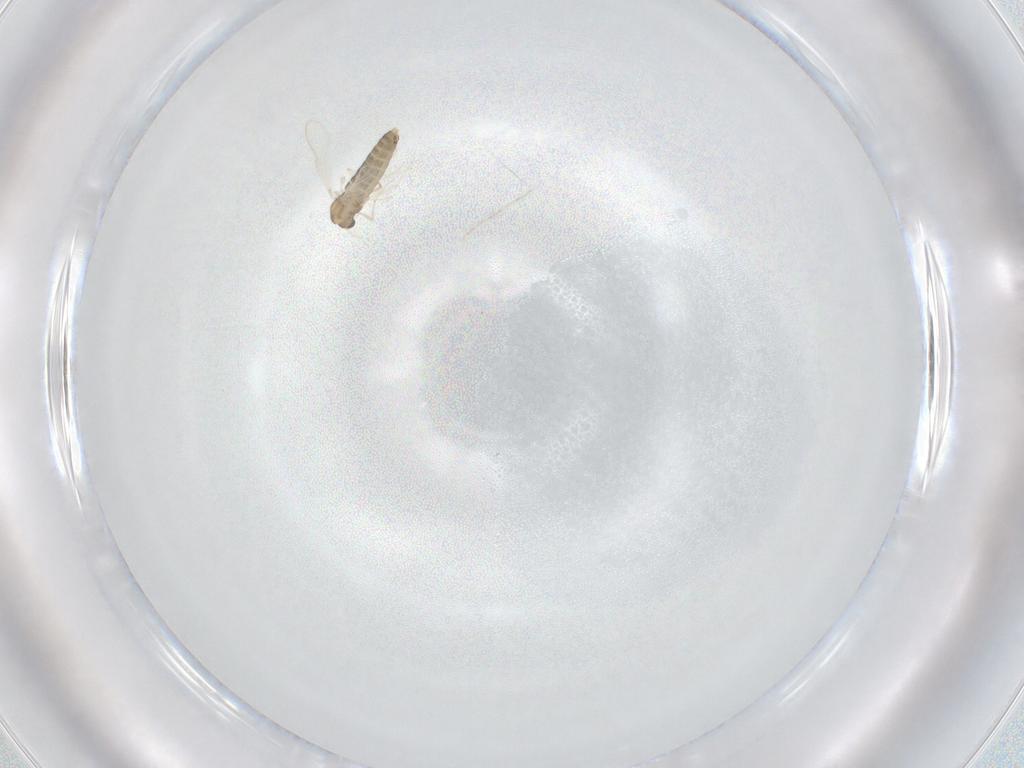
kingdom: Animalia
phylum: Arthropoda
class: Insecta
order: Diptera
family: Chironomidae
